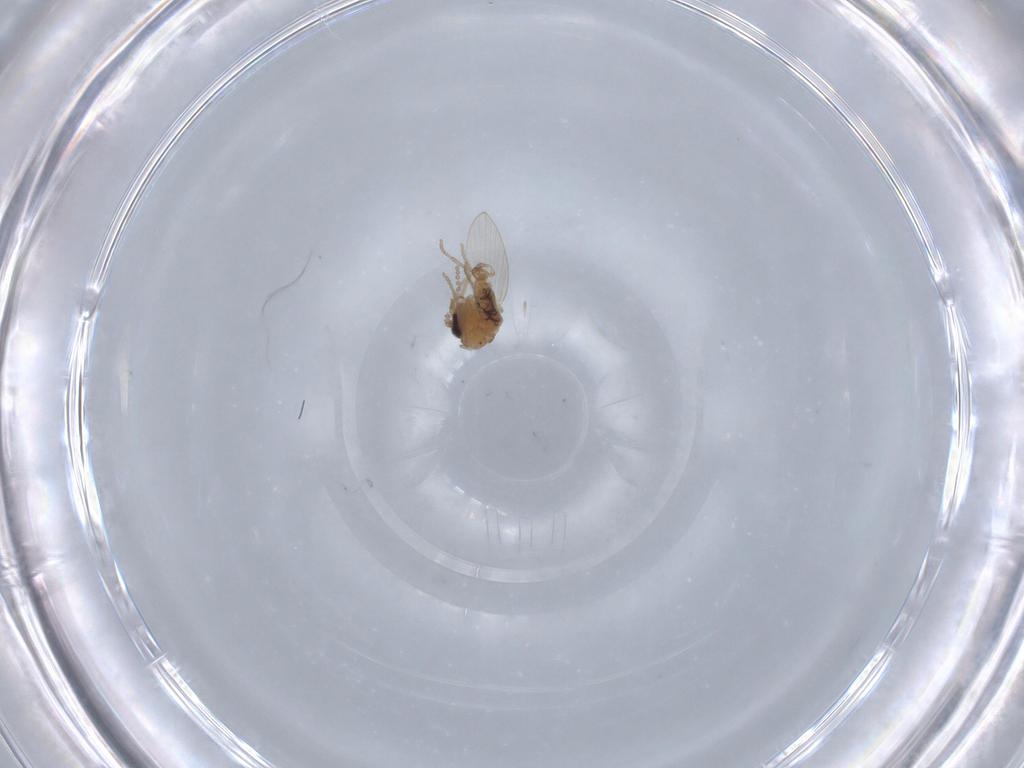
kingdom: Animalia
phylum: Arthropoda
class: Insecta
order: Diptera
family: Cecidomyiidae
